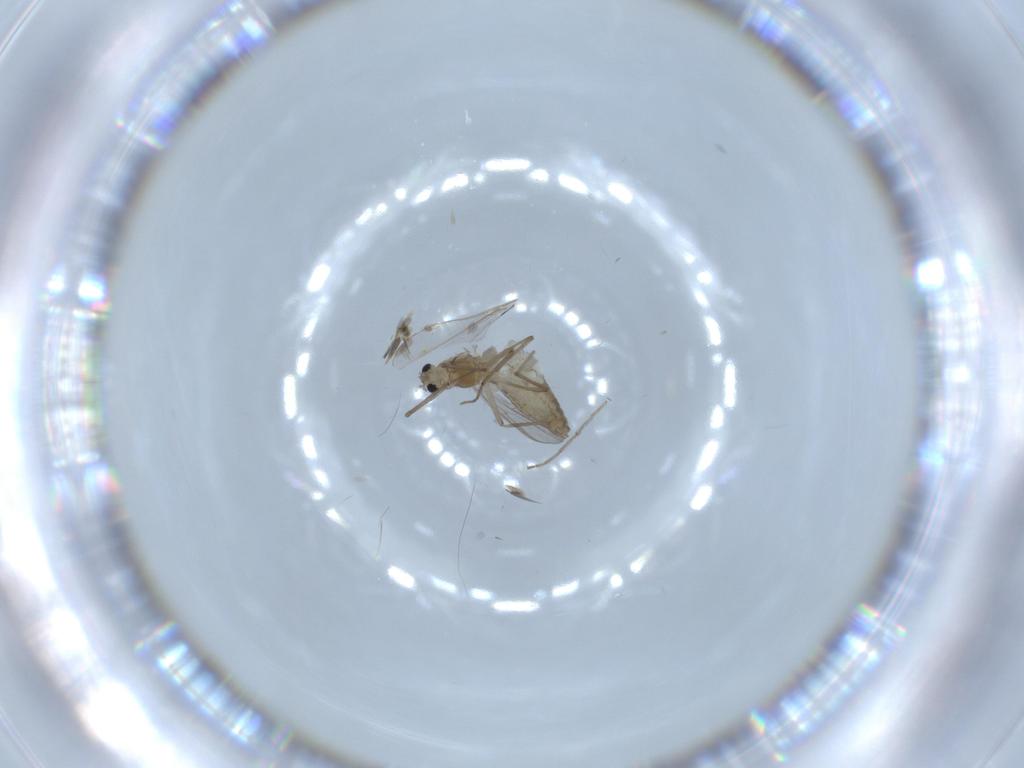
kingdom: Animalia
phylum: Arthropoda
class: Insecta
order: Diptera
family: Chironomidae
